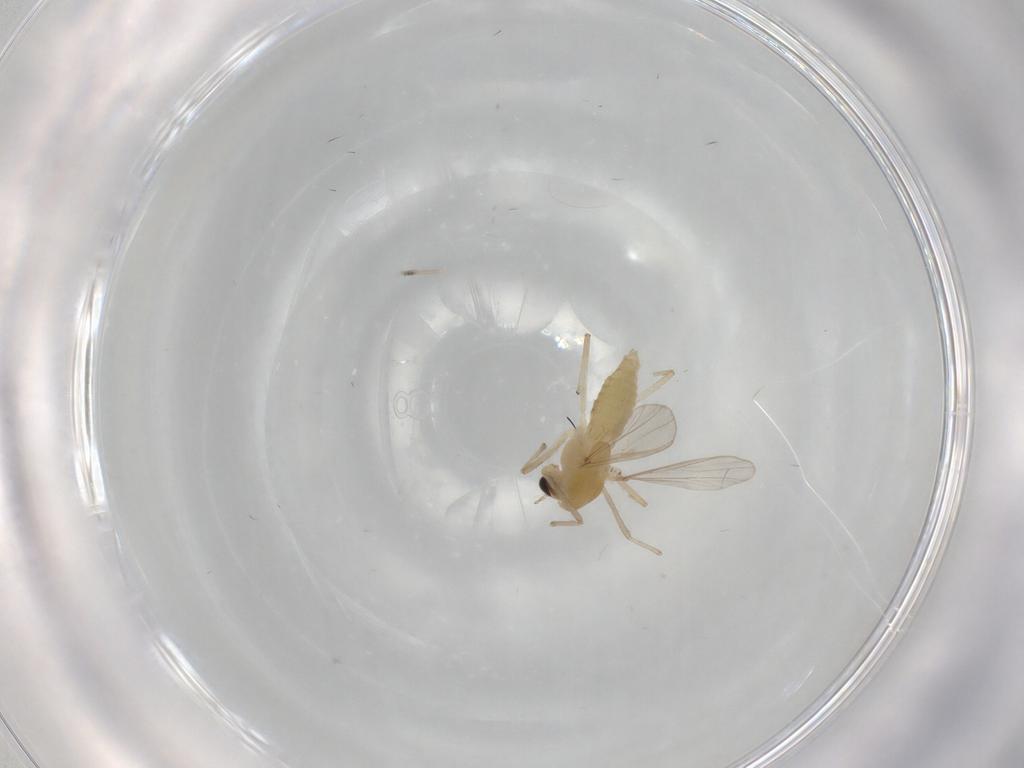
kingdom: Animalia
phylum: Arthropoda
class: Insecta
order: Diptera
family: Chironomidae
